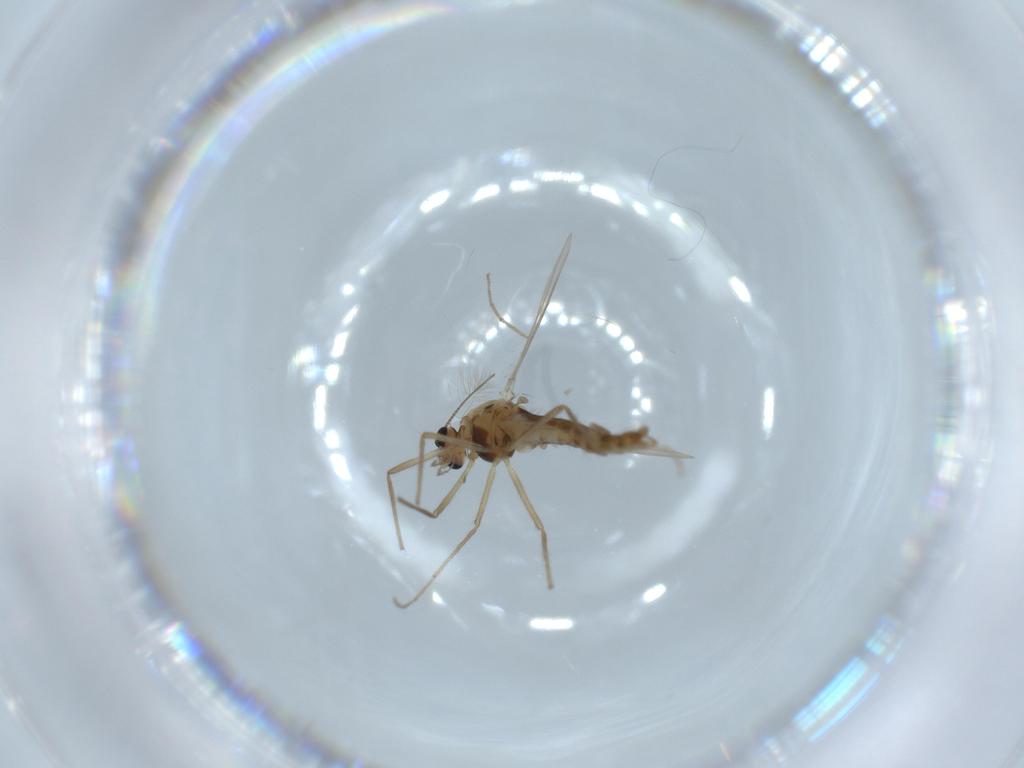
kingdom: Animalia
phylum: Arthropoda
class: Insecta
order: Diptera
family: Chironomidae
